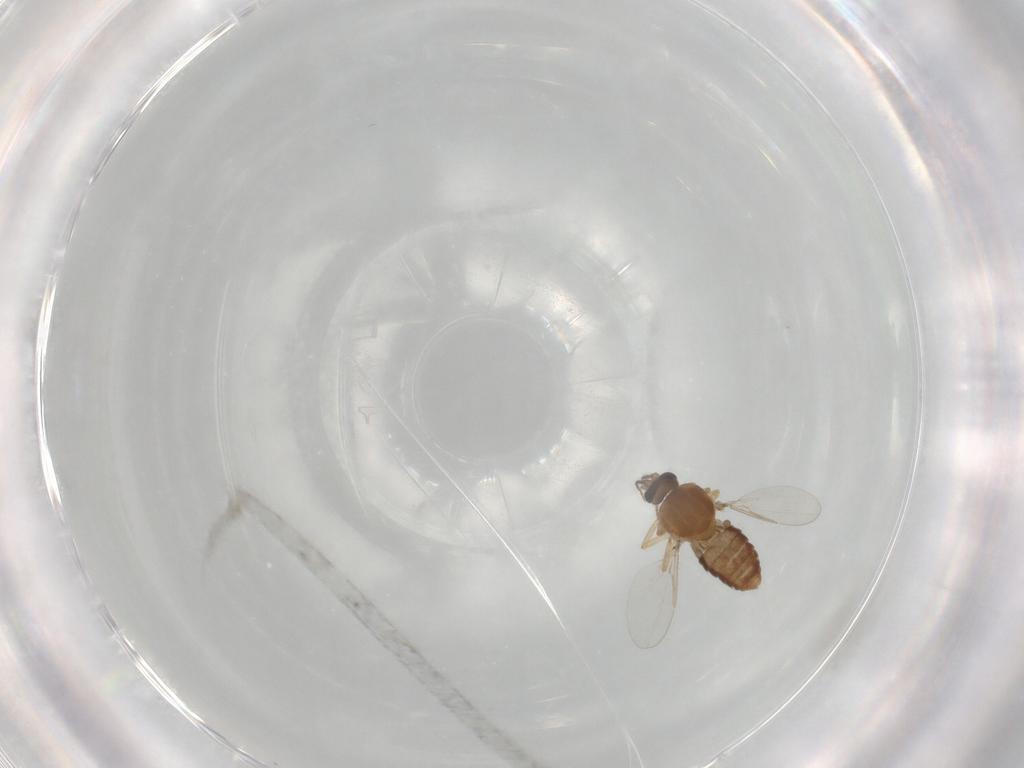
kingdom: Animalia
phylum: Arthropoda
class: Insecta
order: Diptera
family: Ceratopogonidae
